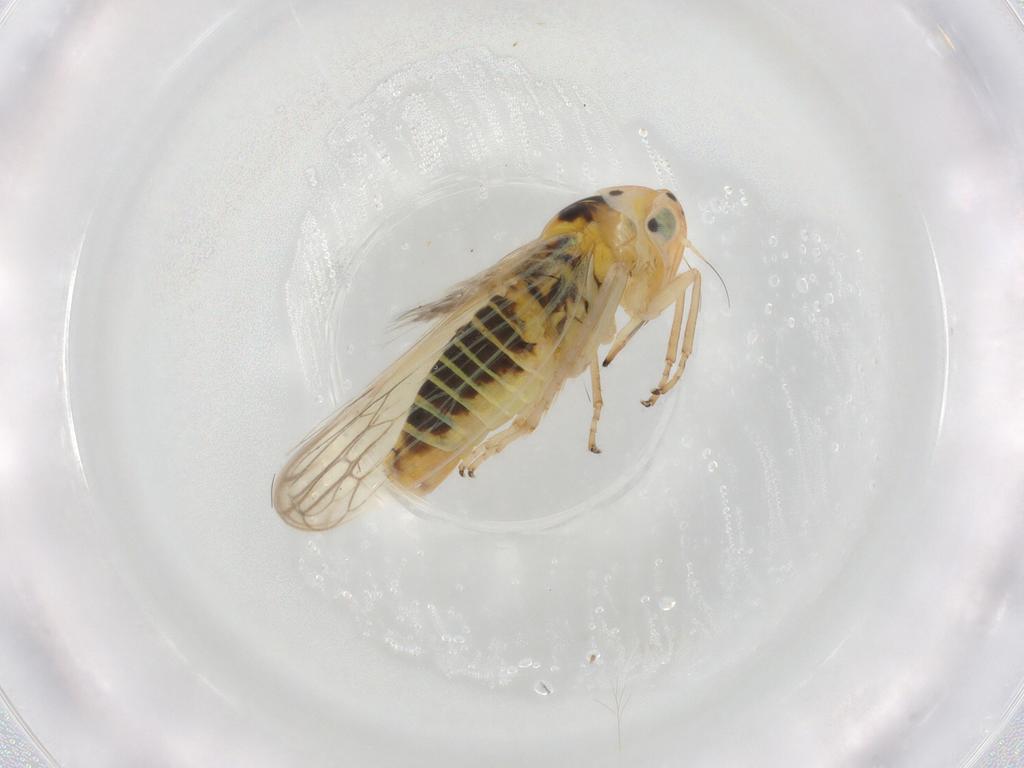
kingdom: Animalia
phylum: Arthropoda
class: Insecta
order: Hemiptera
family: Cicadellidae
